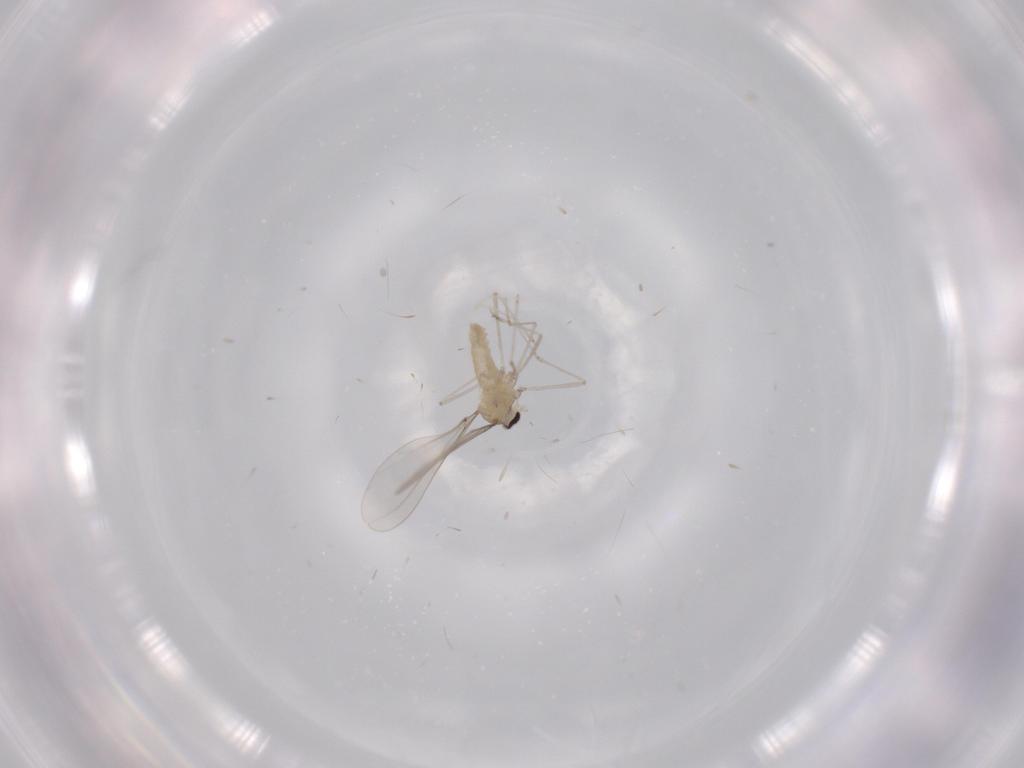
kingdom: Animalia
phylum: Arthropoda
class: Insecta
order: Diptera
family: Cecidomyiidae
